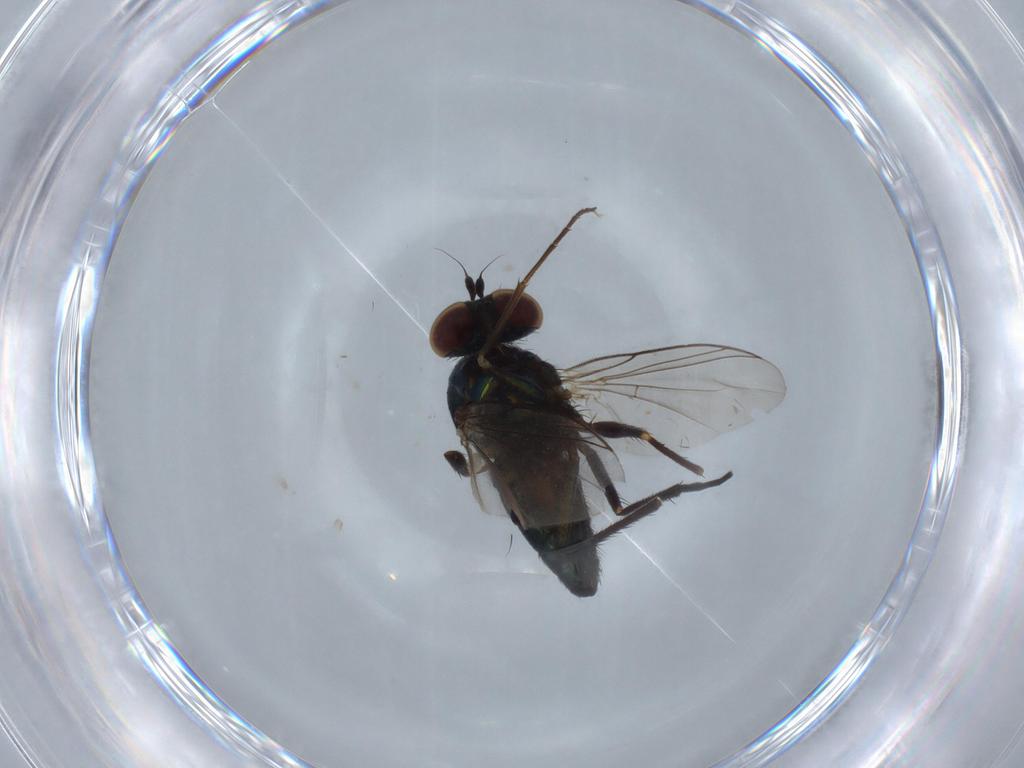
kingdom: Animalia
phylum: Arthropoda
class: Insecta
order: Diptera
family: Dolichopodidae
